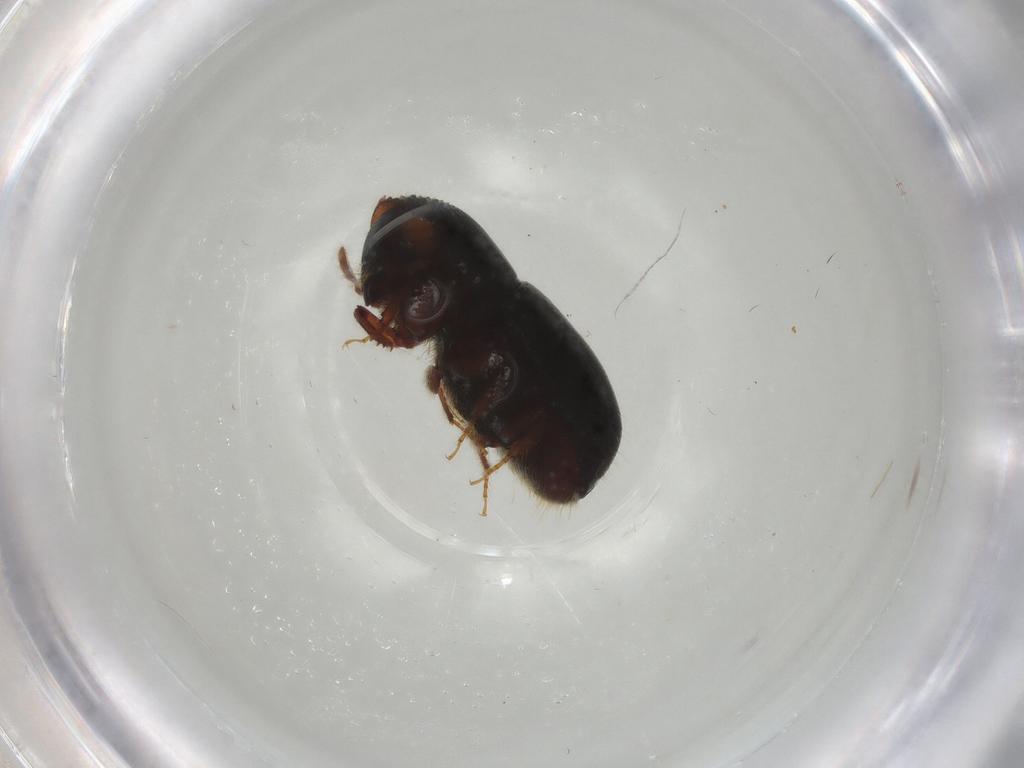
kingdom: Animalia
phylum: Arthropoda
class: Insecta
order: Coleoptera
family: Curculionidae
